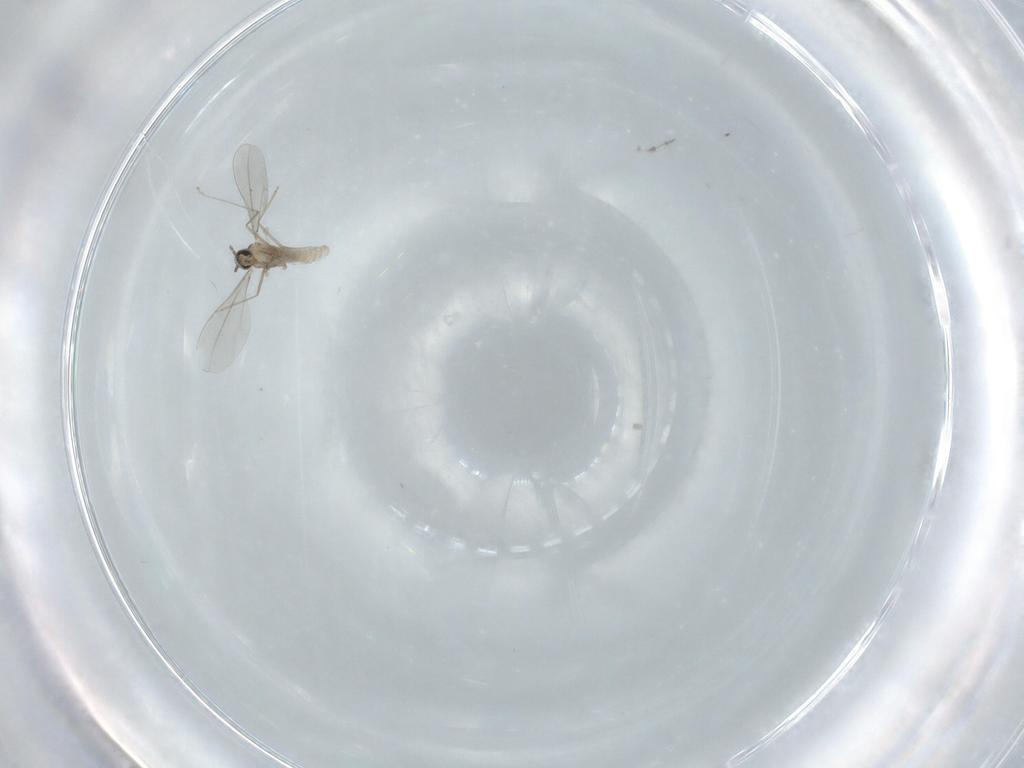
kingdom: Animalia
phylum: Arthropoda
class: Insecta
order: Diptera
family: Cecidomyiidae
